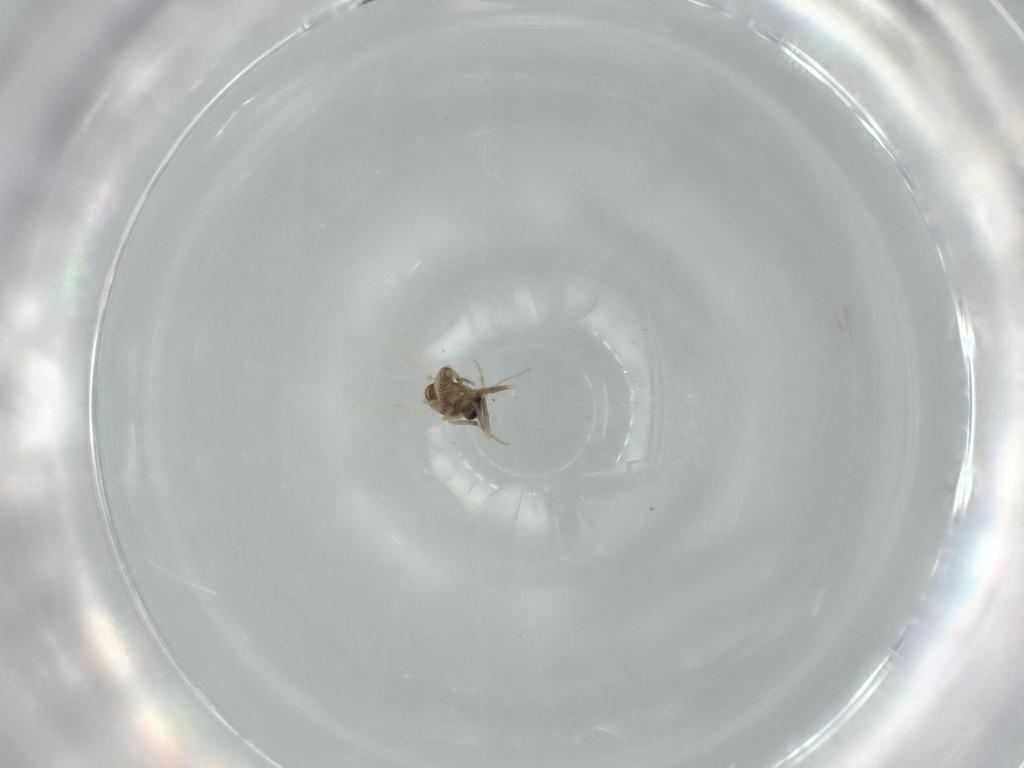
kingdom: Animalia
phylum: Arthropoda
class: Insecta
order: Diptera
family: Ceratopogonidae
